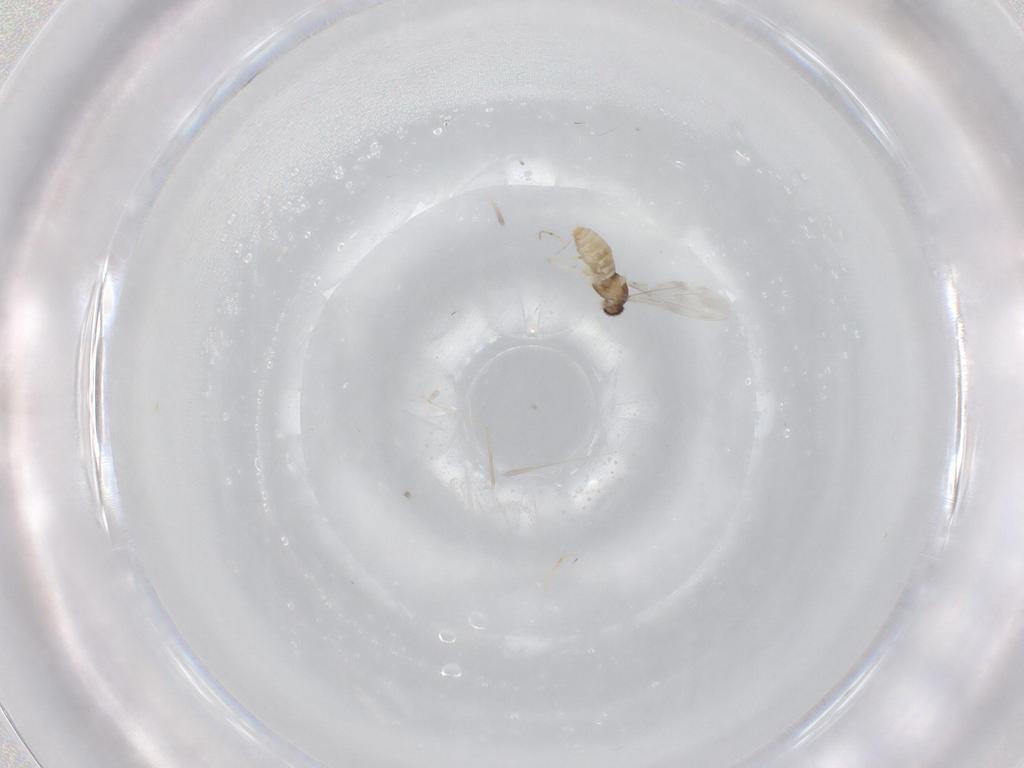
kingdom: Animalia
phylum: Arthropoda
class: Insecta
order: Diptera
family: Cecidomyiidae
